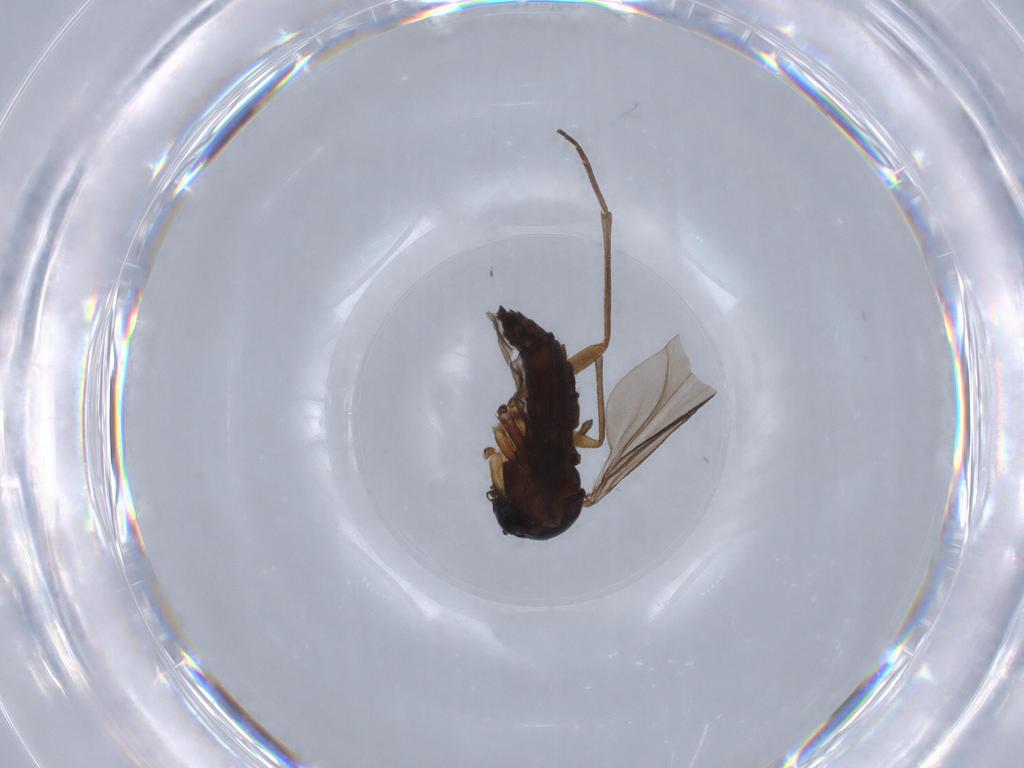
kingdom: Animalia
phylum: Arthropoda
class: Insecta
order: Diptera
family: Sciaridae
